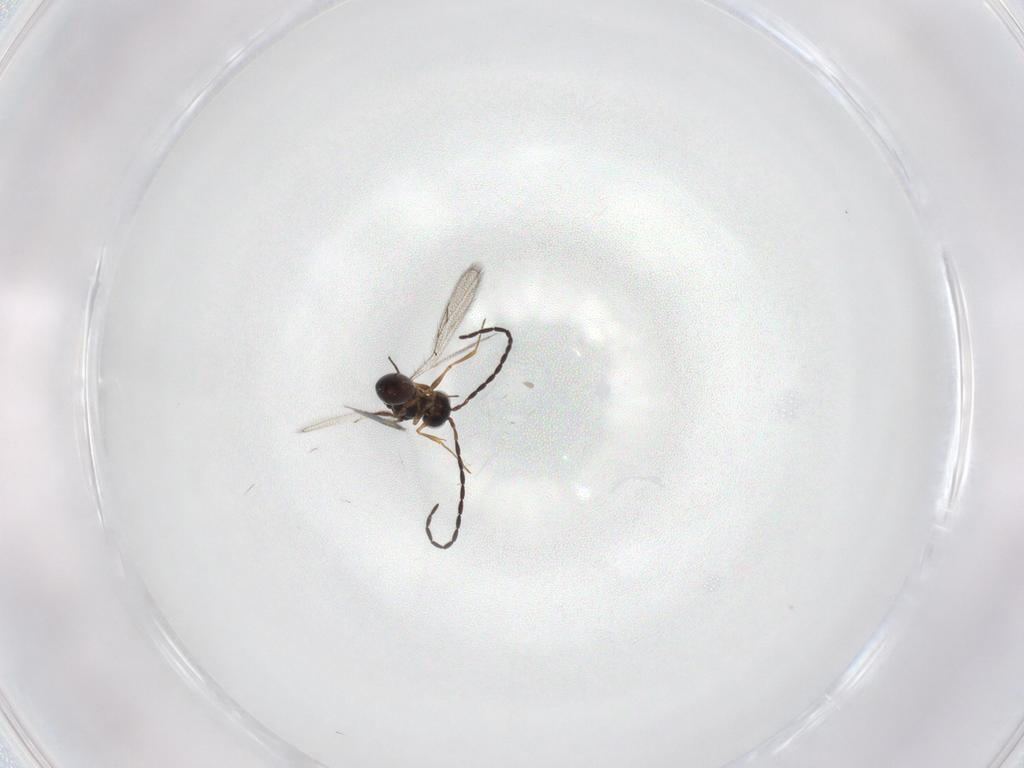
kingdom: Animalia
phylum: Arthropoda
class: Insecta
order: Hymenoptera
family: Figitidae
